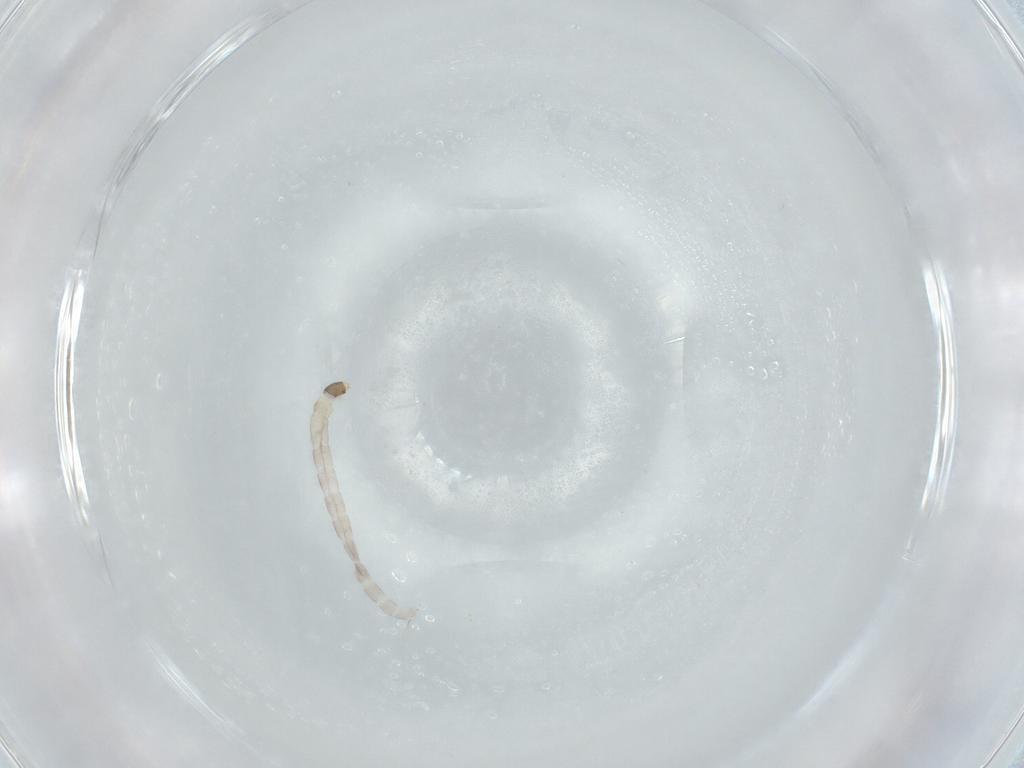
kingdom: Animalia
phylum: Arthropoda
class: Insecta
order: Diptera
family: Chironomidae
